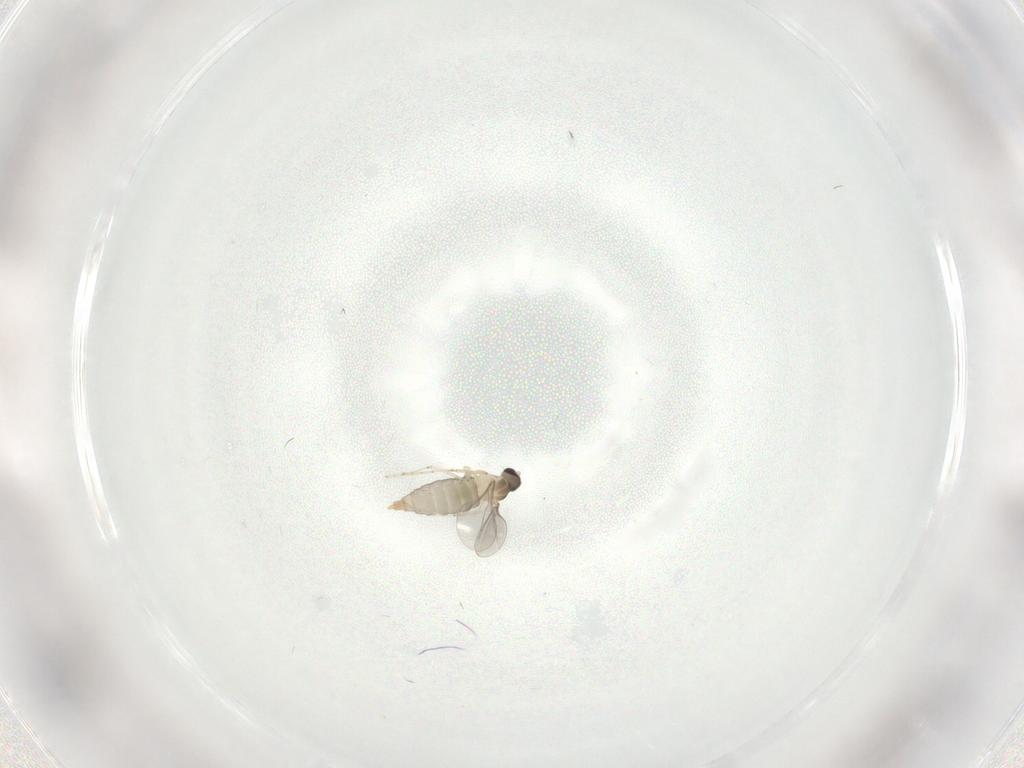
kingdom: Animalia
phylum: Arthropoda
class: Insecta
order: Diptera
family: Cecidomyiidae
